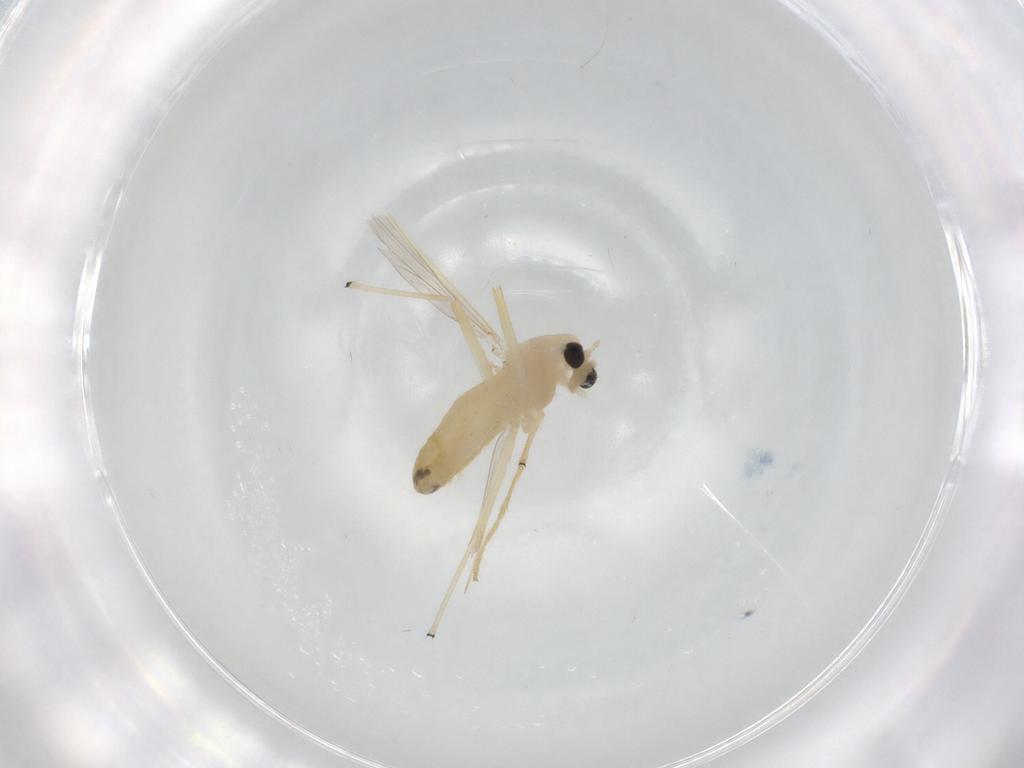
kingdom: Animalia
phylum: Arthropoda
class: Insecta
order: Diptera
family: Chironomidae
